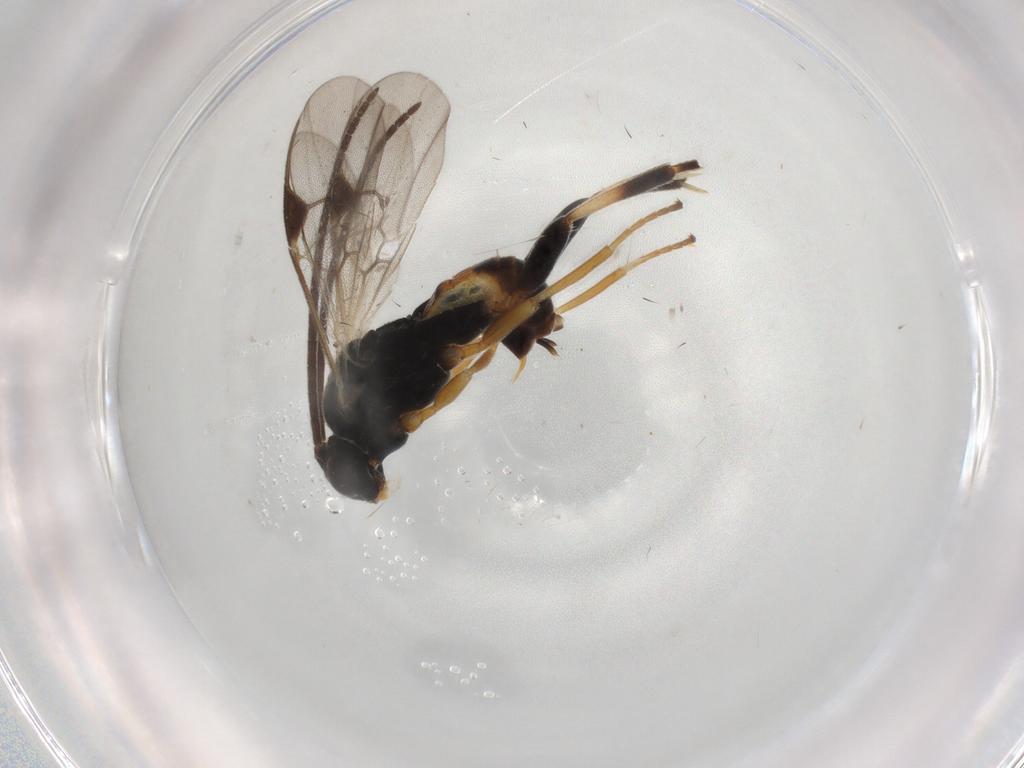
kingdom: Animalia
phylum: Arthropoda
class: Insecta
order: Hymenoptera
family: Braconidae
